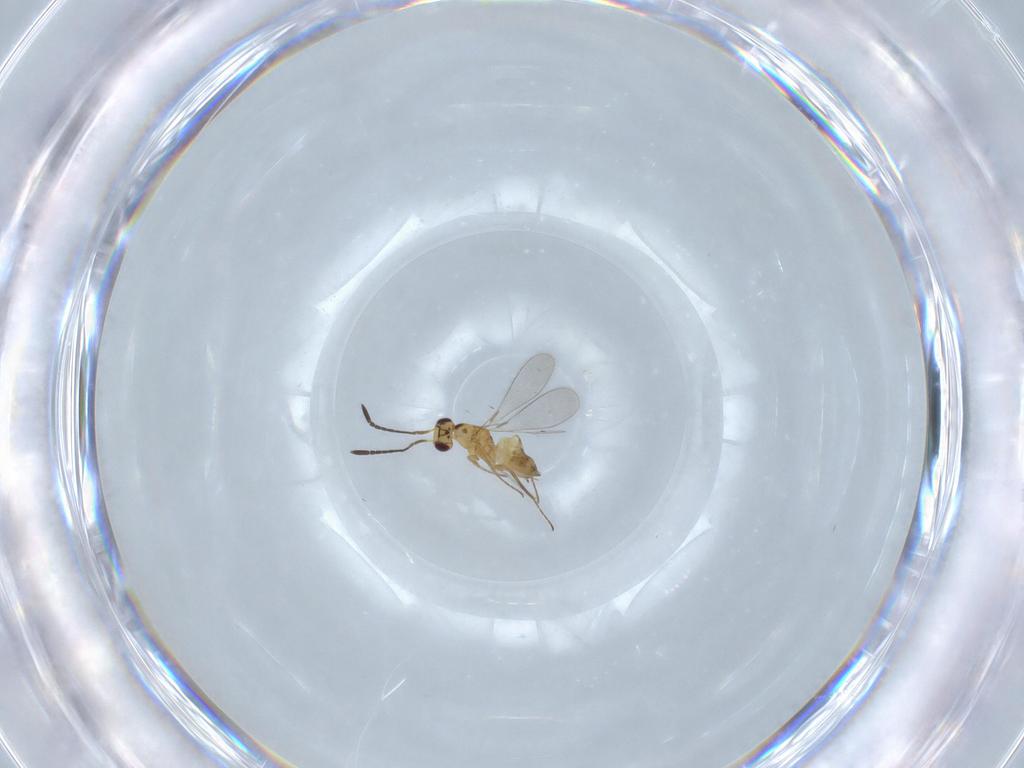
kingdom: Animalia
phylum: Arthropoda
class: Insecta
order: Hymenoptera
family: Mymaridae
